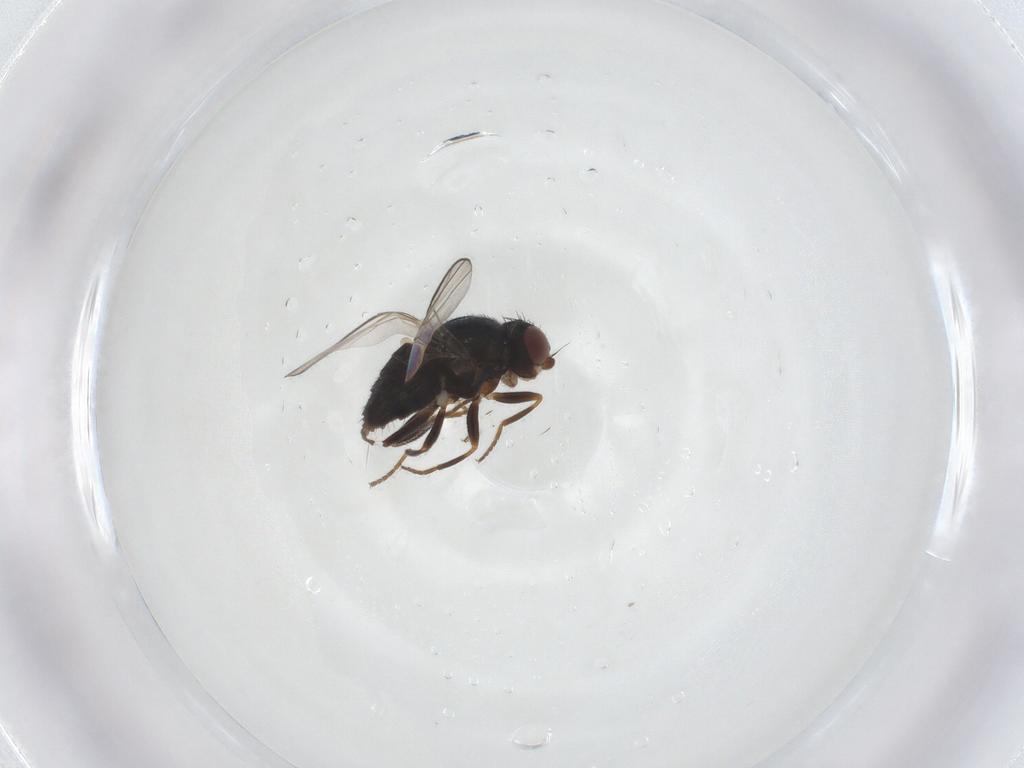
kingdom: Animalia
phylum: Arthropoda
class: Insecta
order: Diptera
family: Chloropidae
